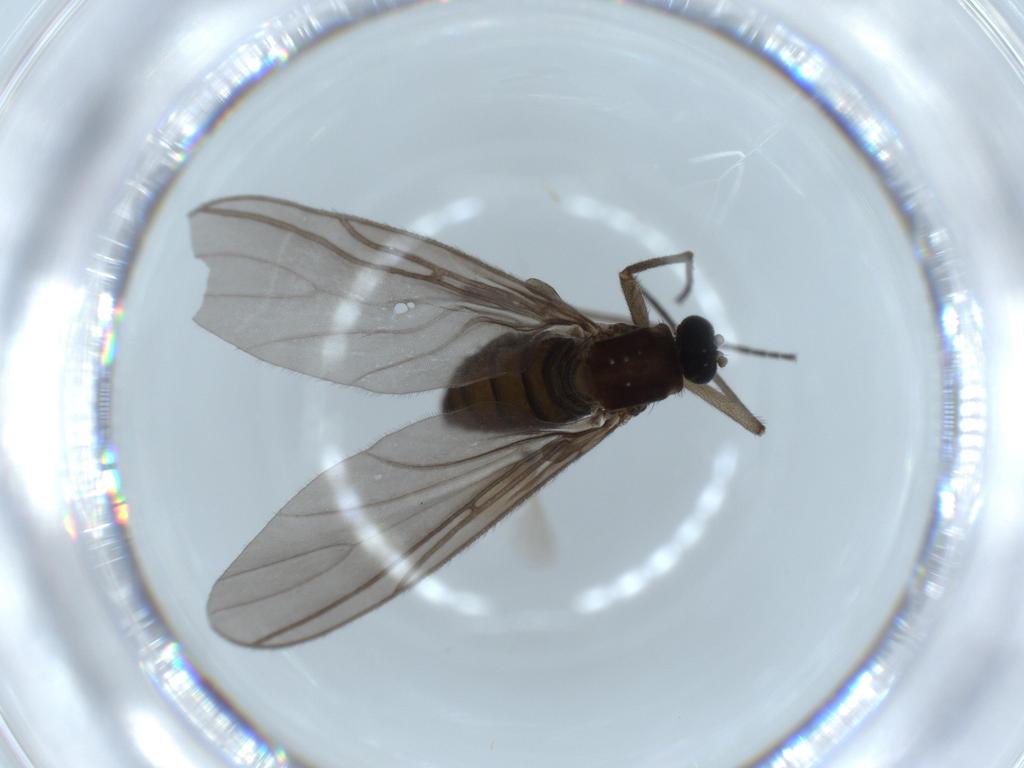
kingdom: Animalia
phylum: Arthropoda
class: Insecta
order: Diptera
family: Sciaridae
